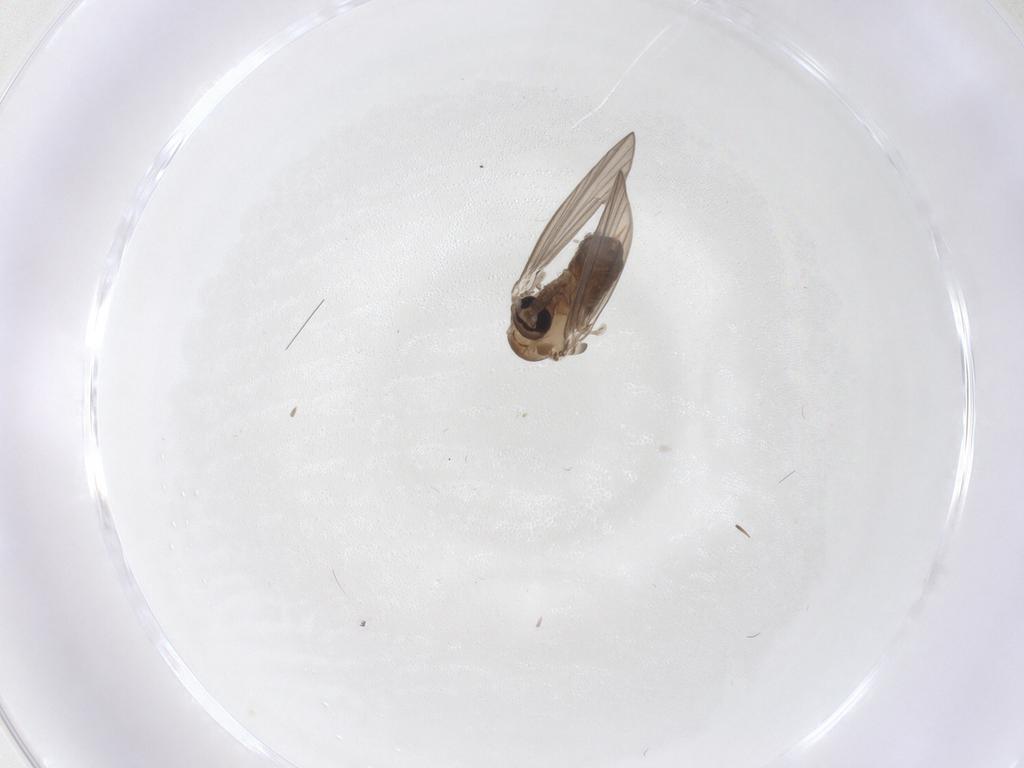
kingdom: Animalia
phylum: Arthropoda
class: Insecta
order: Diptera
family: Psychodidae
